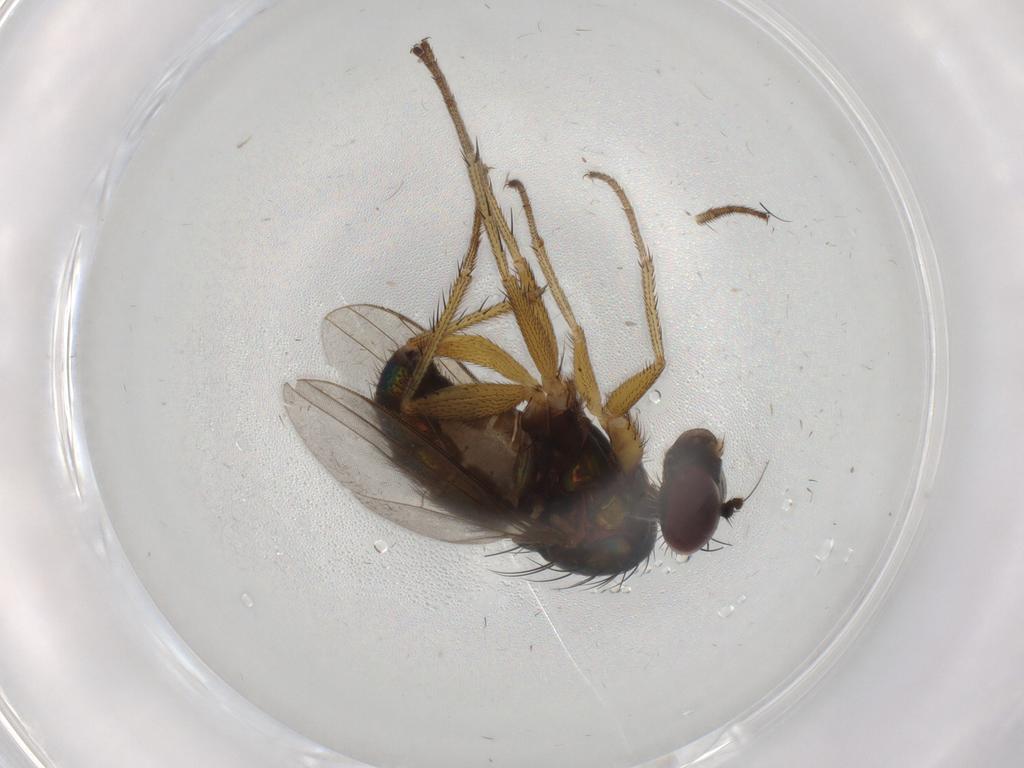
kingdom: Animalia
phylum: Arthropoda
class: Insecta
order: Diptera
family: Dolichopodidae
